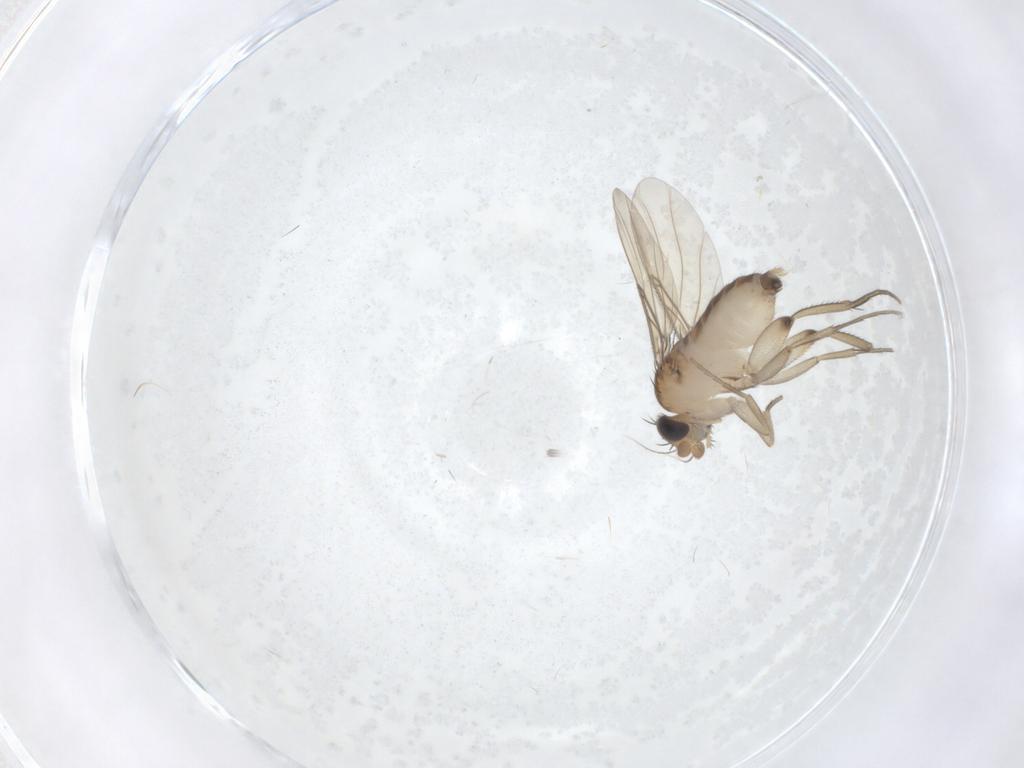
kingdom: Animalia
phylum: Arthropoda
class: Insecta
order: Diptera
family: Phoridae
